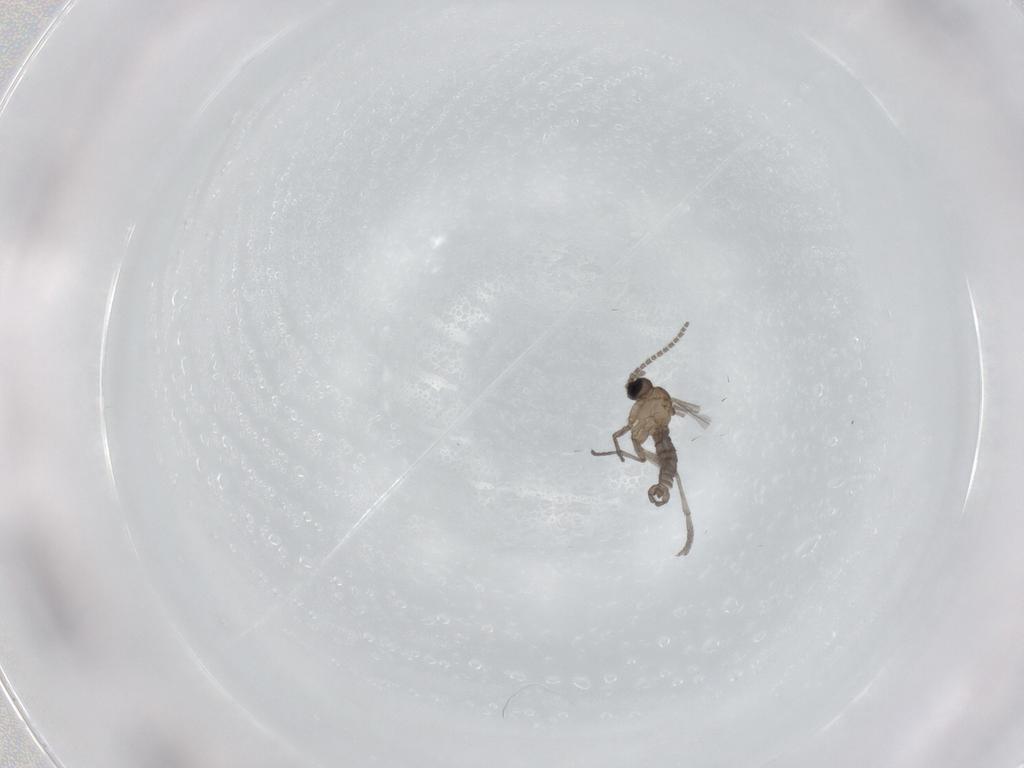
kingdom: Animalia
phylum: Arthropoda
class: Insecta
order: Diptera
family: Sciaridae
